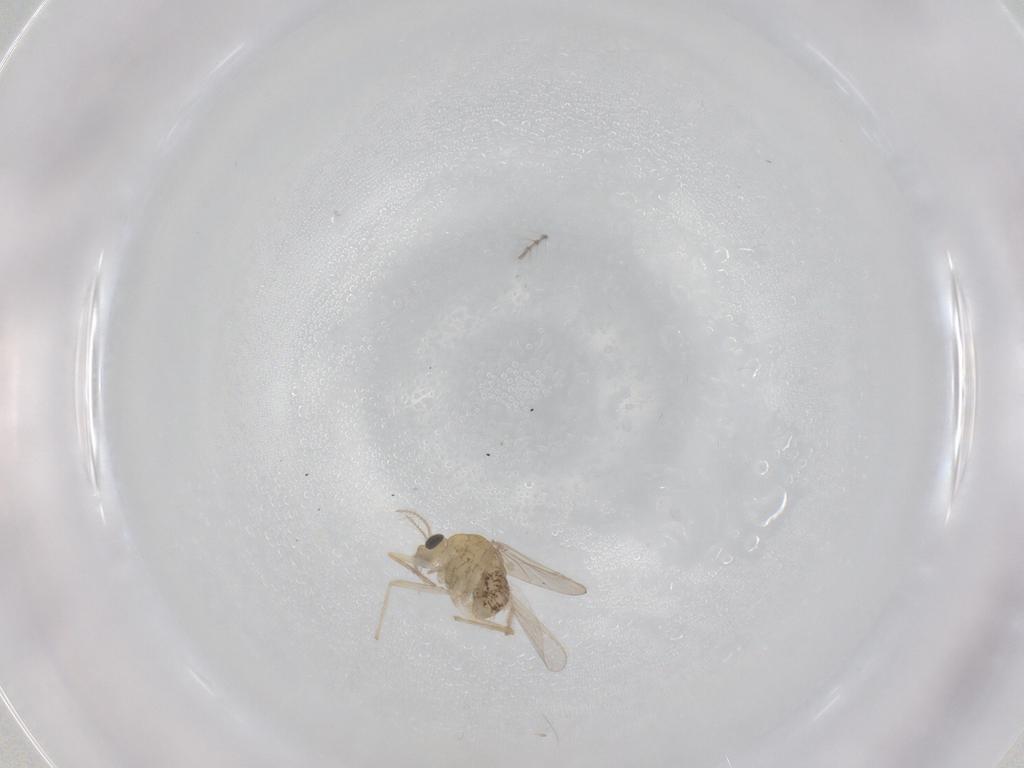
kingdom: Animalia
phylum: Arthropoda
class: Insecta
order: Diptera
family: Chironomidae
